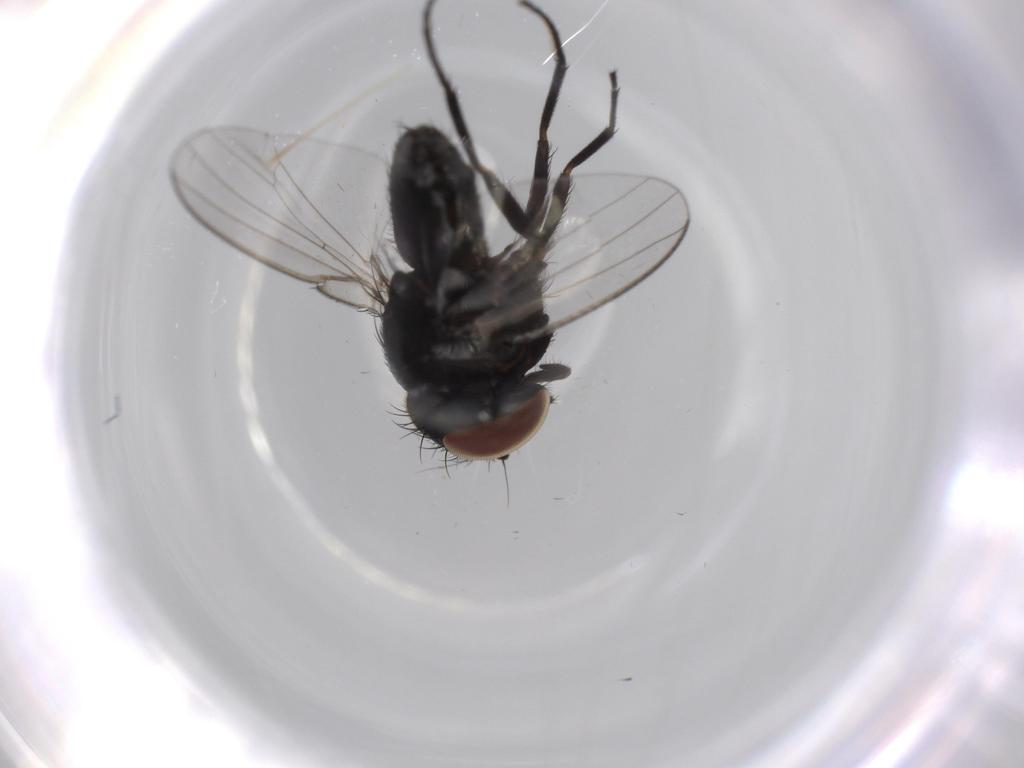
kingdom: Animalia
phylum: Arthropoda
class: Insecta
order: Diptera
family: Milichiidae
